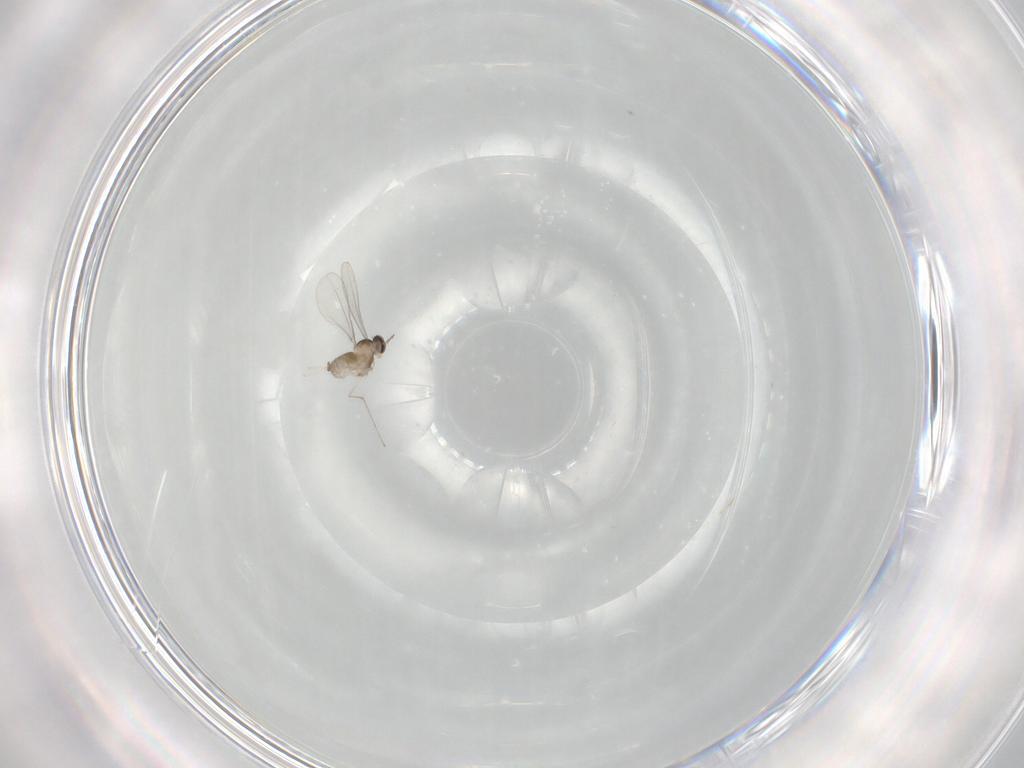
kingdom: Animalia
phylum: Arthropoda
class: Insecta
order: Diptera
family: Cecidomyiidae
